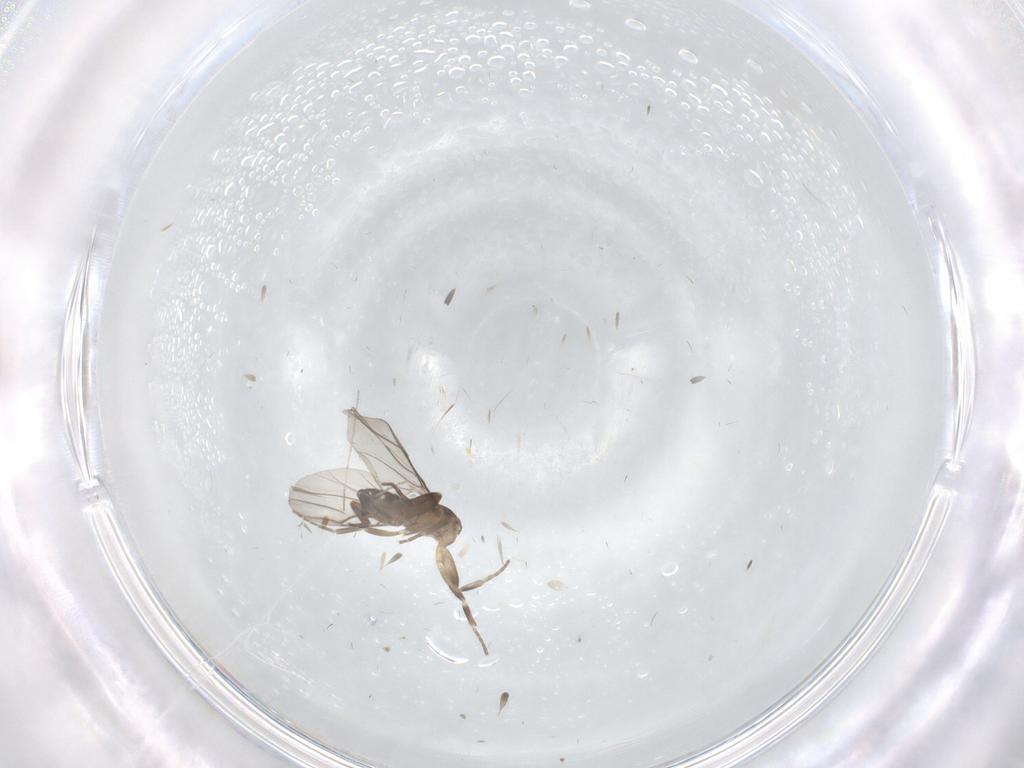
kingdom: Animalia
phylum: Arthropoda
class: Insecta
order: Diptera
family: Cecidomyiidae
